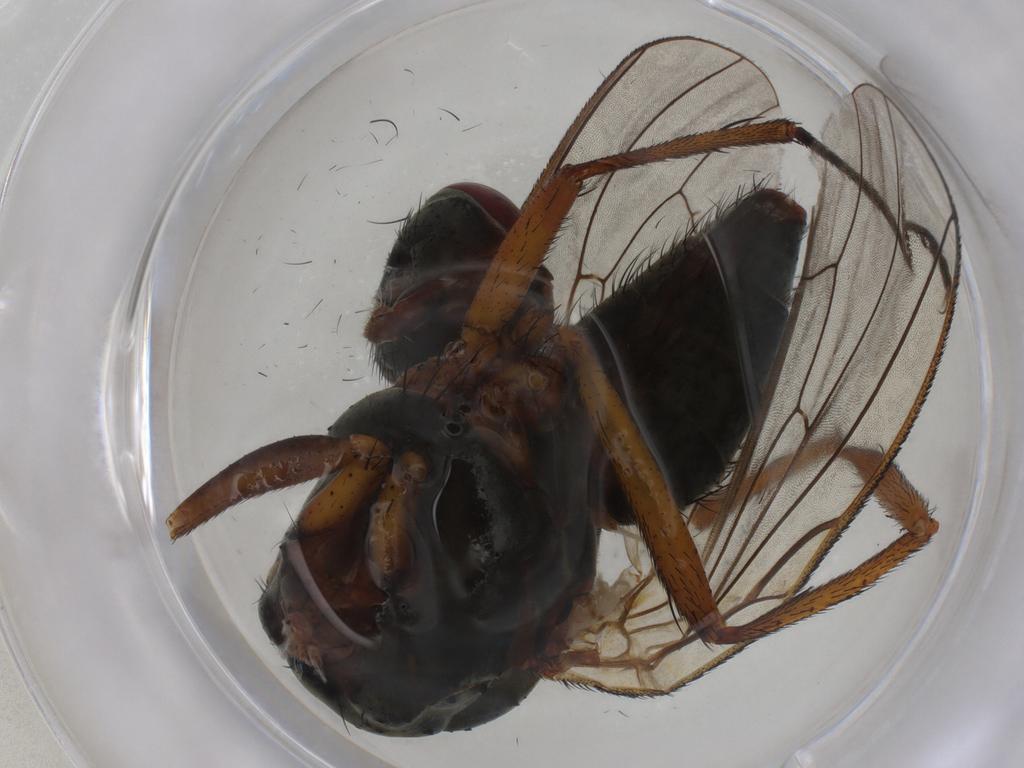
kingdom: Animalia
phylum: Arthropoda
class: Insecta
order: Diptera
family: Anthomyiidae
